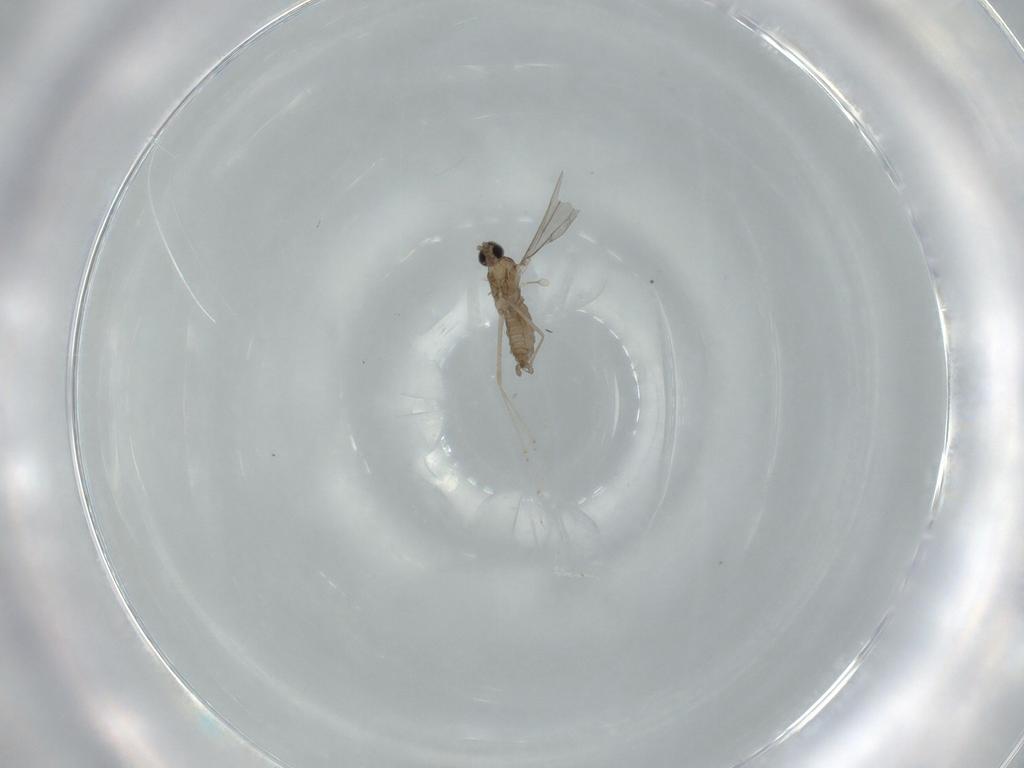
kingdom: Animalia
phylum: Arthropoda
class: Insecta
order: Diptera
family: Cecidomyiidae
